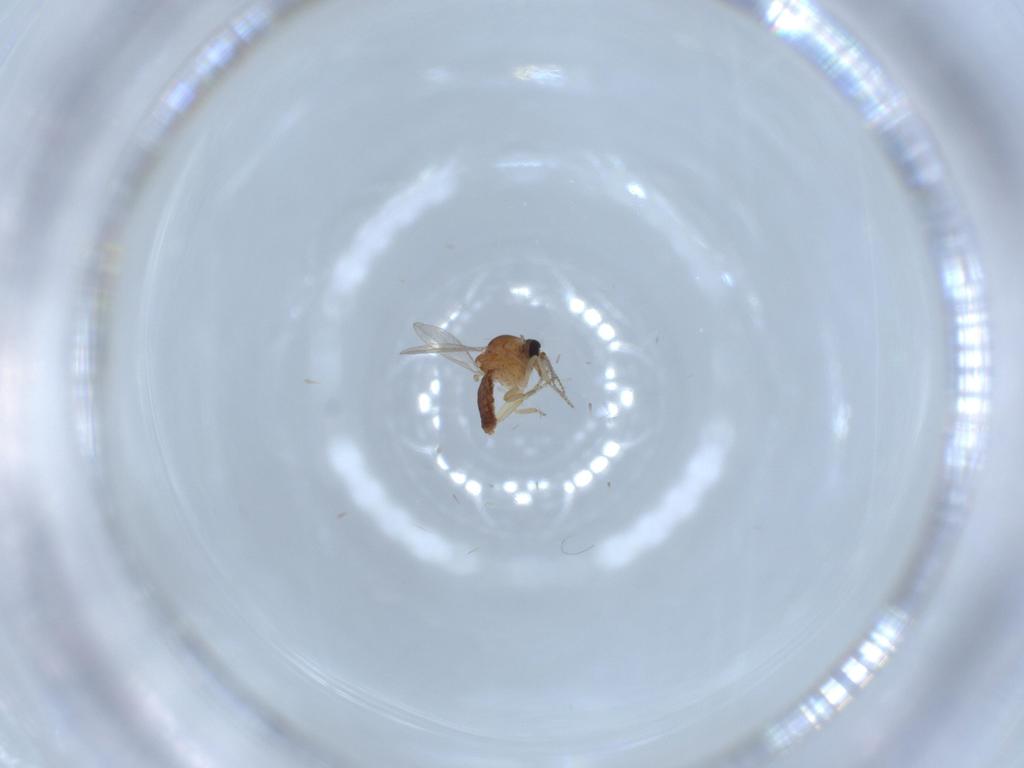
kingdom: Animalia
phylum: Arthropoda
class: Insecta
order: Diptera
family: Ceratopogonidae
